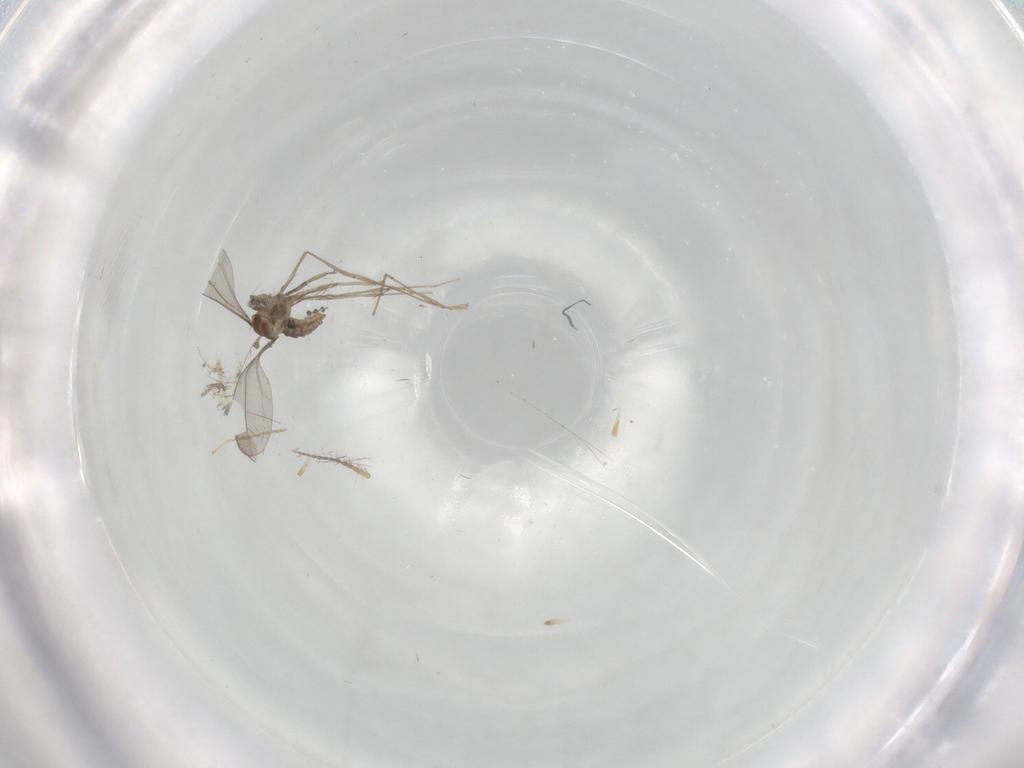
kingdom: Animalia
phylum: Arthropoda
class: Insecta
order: Diptera
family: Psychodidae
